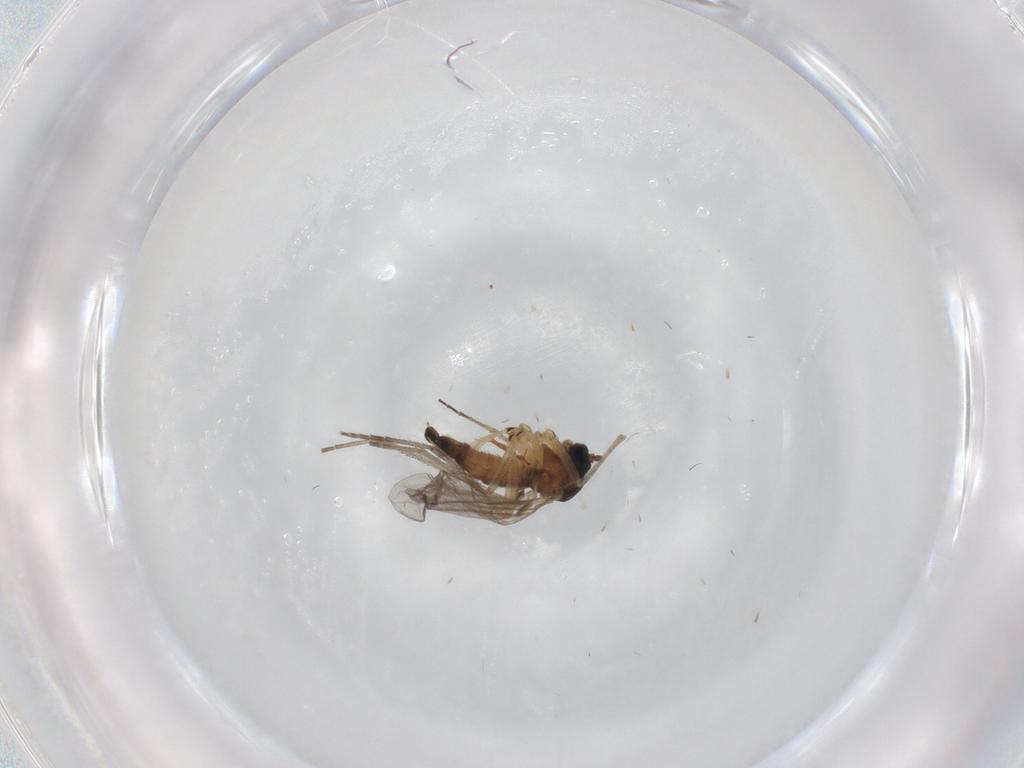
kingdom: Animalia
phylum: Arthropoda
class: Insecta
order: Diptera
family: Sciaridae
